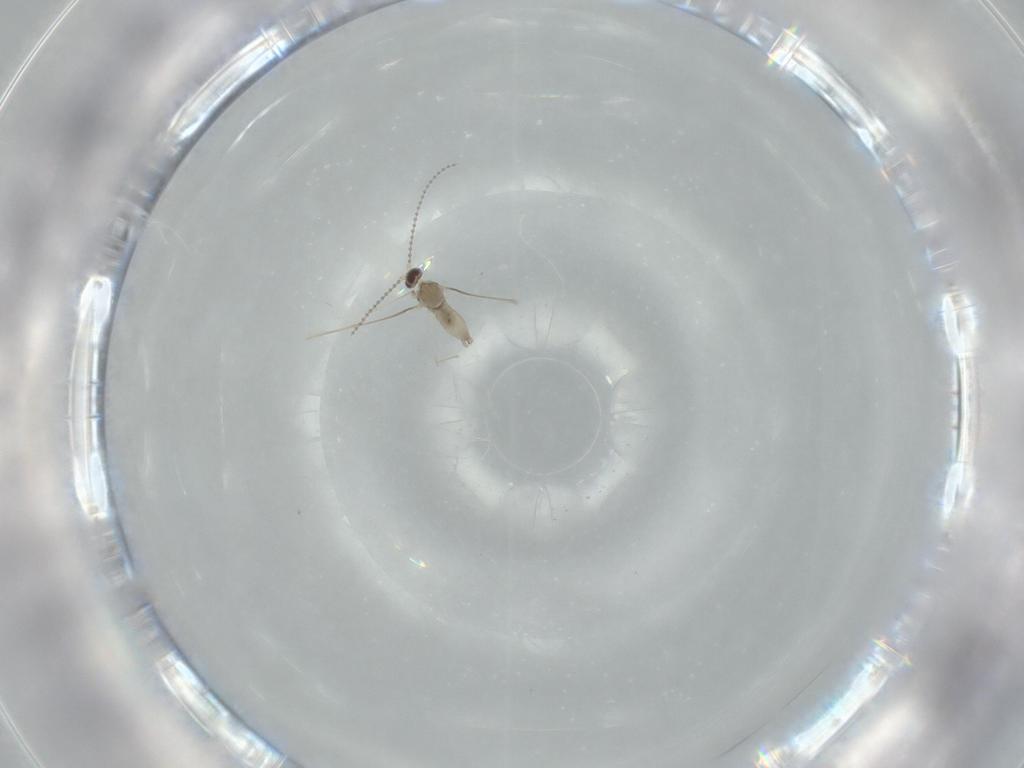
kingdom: Animalia
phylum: Arthropoda
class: Insecta
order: Diptera
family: Cecidomyiidae
